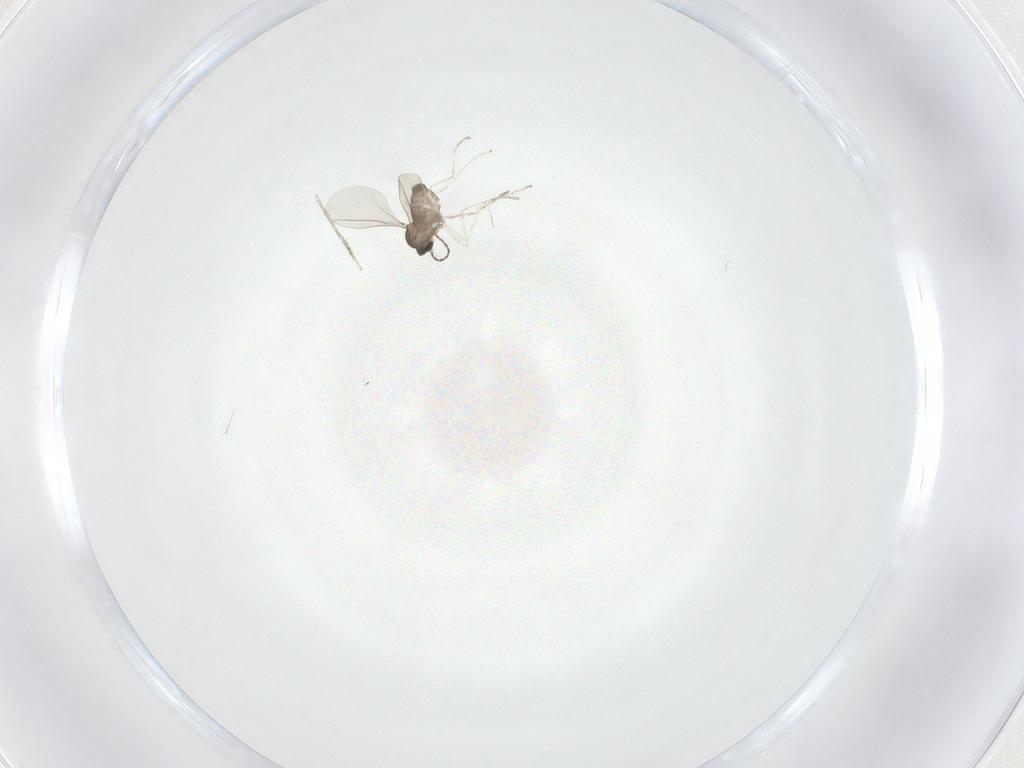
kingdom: Animalia
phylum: Arthropoda
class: Insecta
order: Diptera
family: Cecidomyiidae
